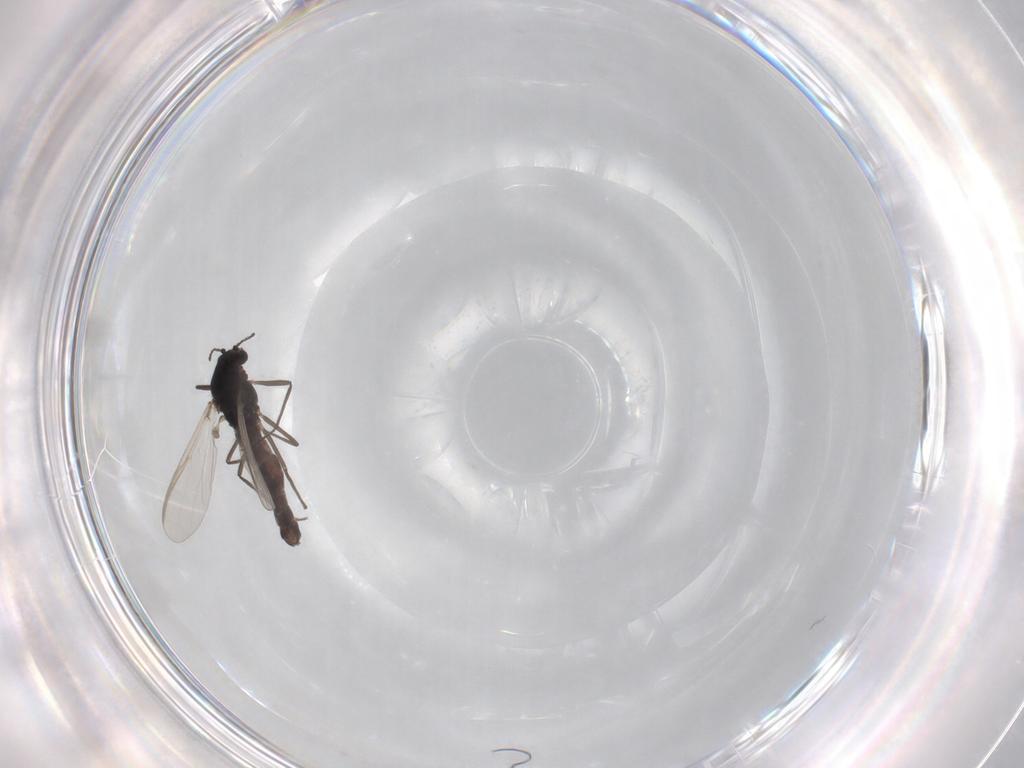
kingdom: Animalia
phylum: Arthropoda
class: Insecta
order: Diptera
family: Chironomidae
